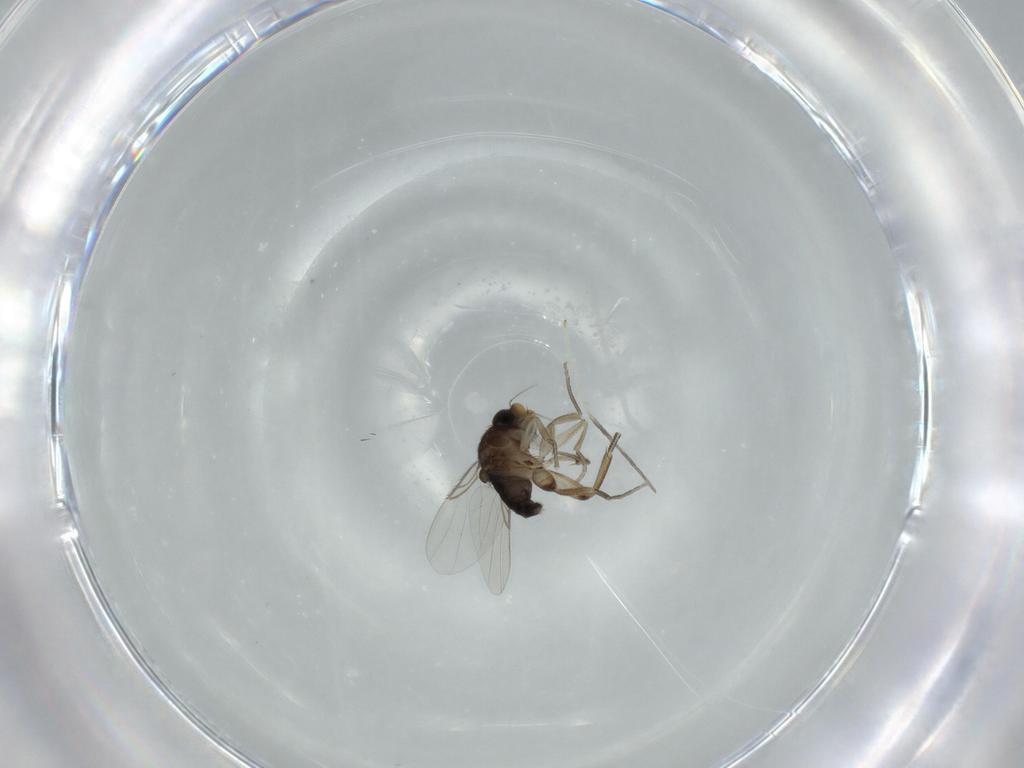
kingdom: Animalia
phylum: Arthropoda
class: Insecta
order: Diptera
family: Phoridae
